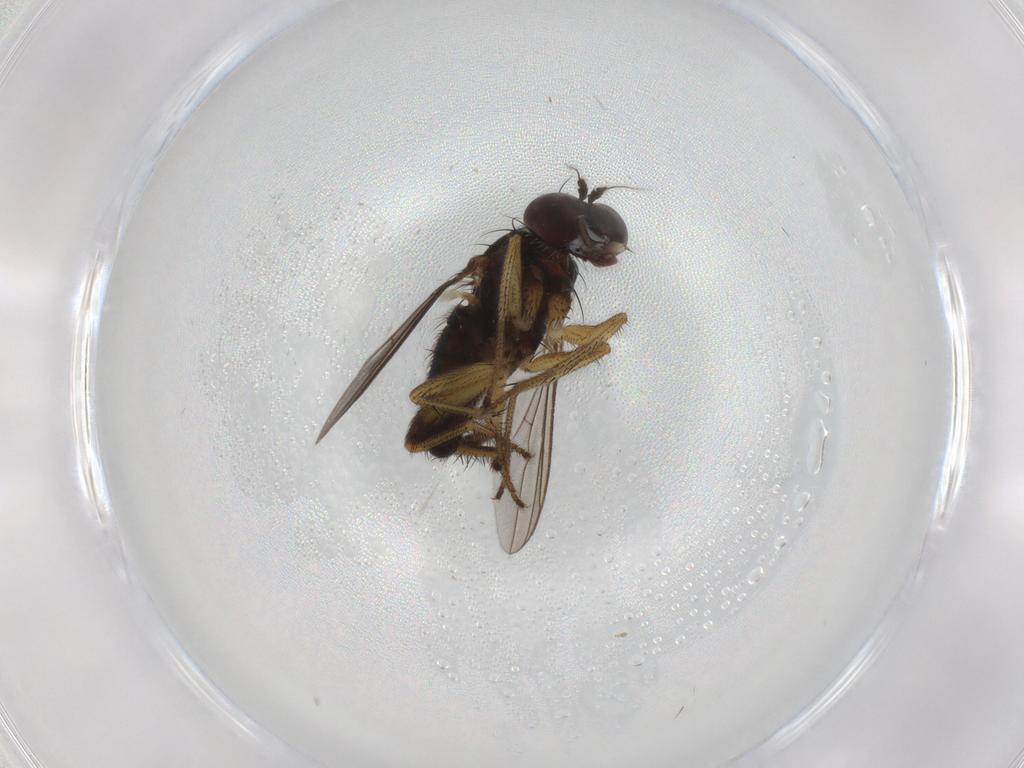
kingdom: Animalia
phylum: Arthropoda
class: Insecta
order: Diptera
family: Dolichopodidae
